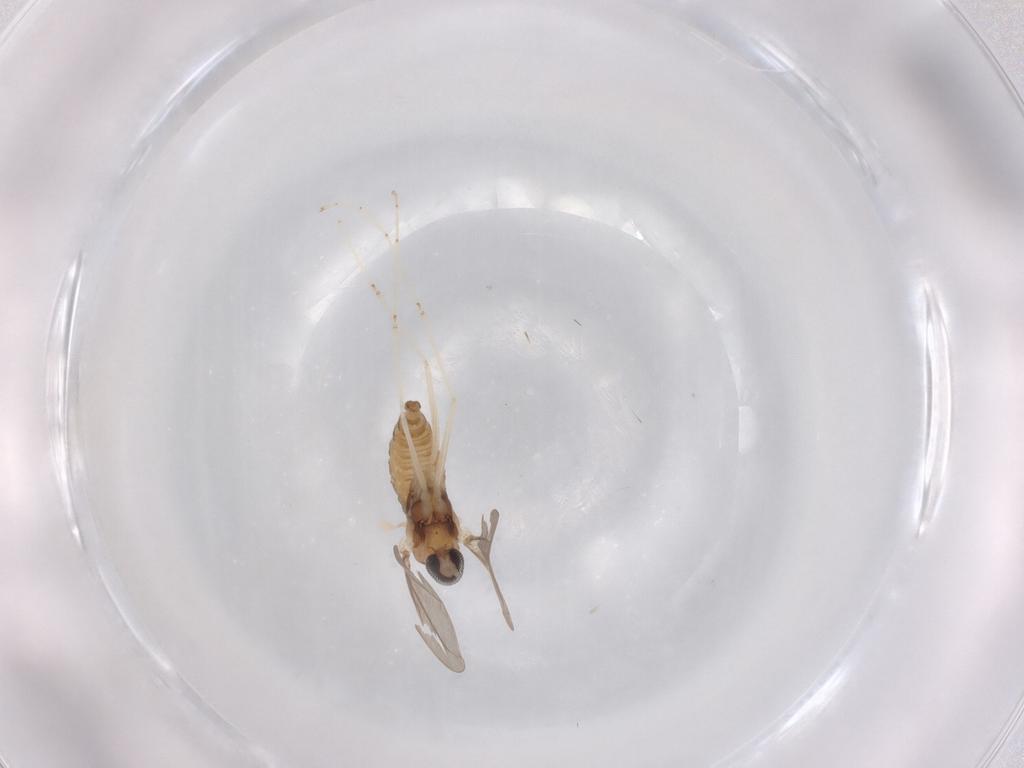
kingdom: Animalia
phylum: Arthropoda
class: Insecta
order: Diptera
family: Cecidomyiidae
